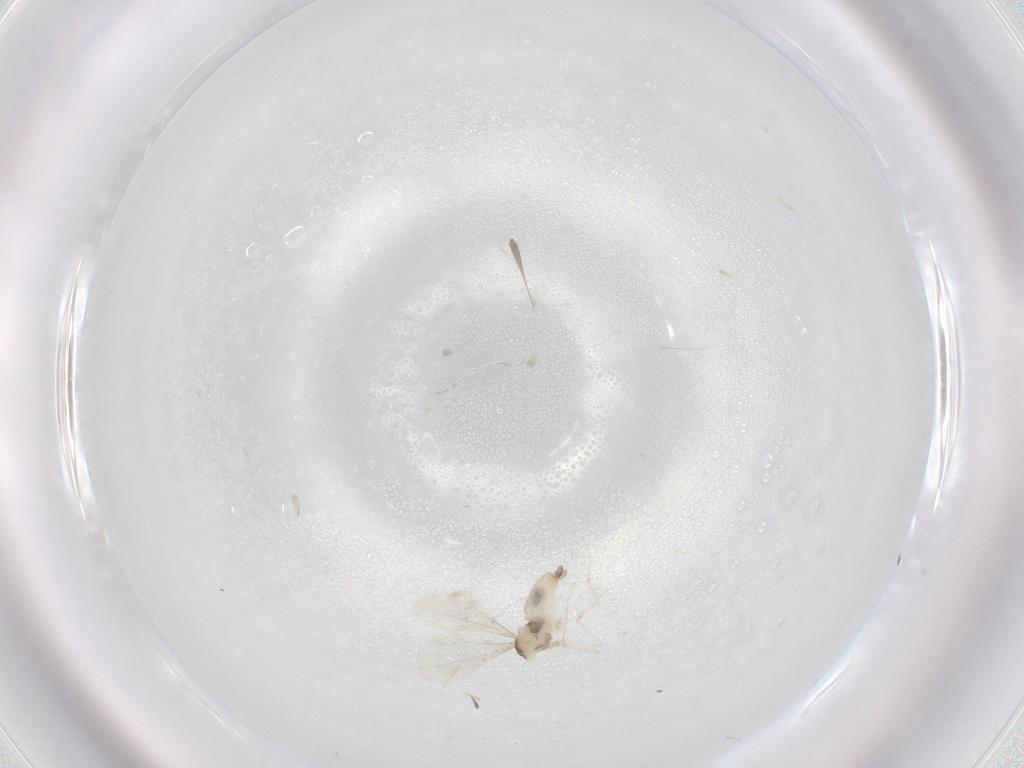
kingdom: Animalia
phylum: Arthropoda
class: Insecta
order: Diptera
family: Cecidomyiidae
